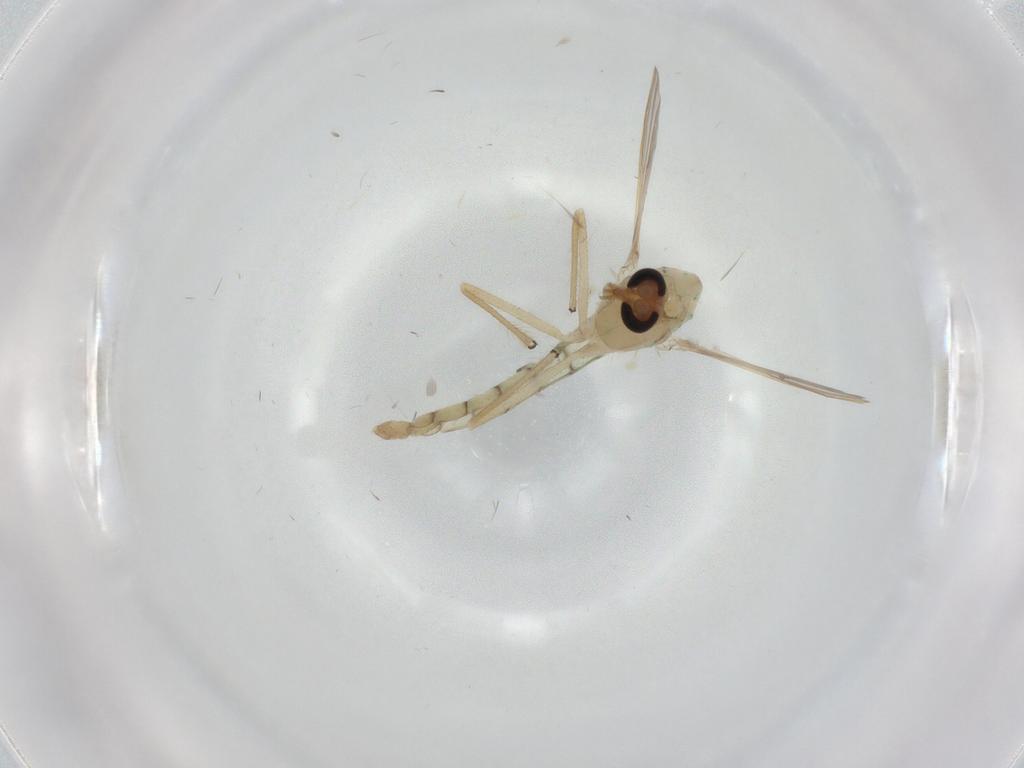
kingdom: Animalia
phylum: Arthropoda
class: Insecta
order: Diptera
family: Chironomidae
